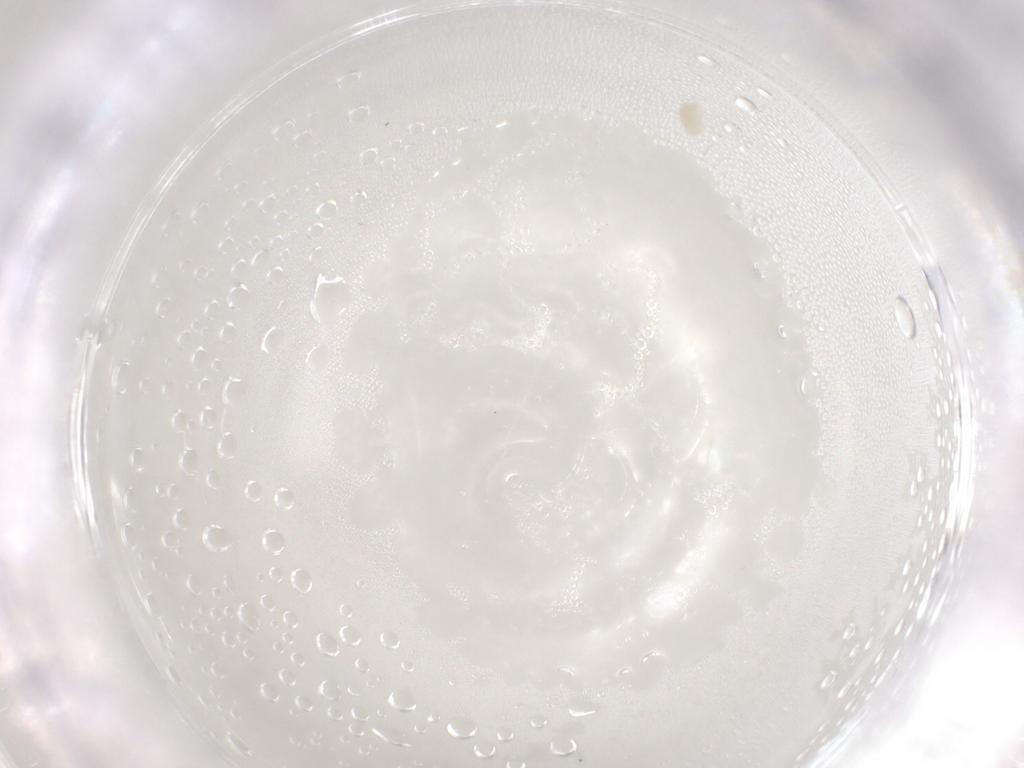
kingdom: Animalia
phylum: Arthropoda
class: Arachnida
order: Trombidiformes
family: Eupodidae
